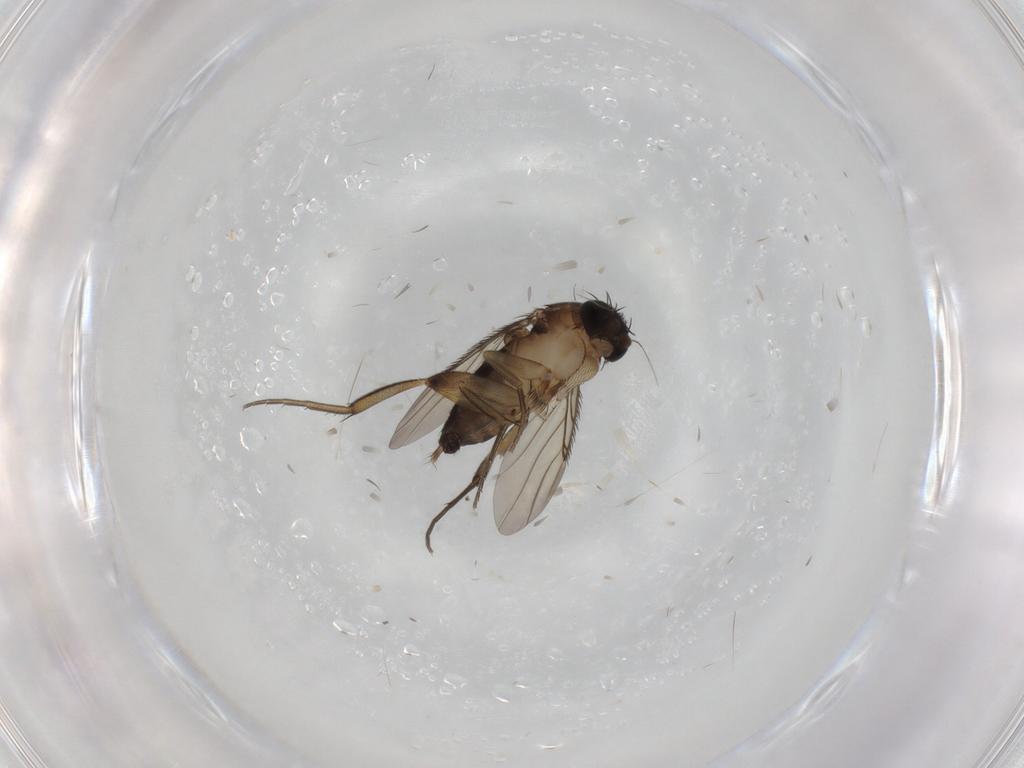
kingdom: Animalia
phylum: Arthropoda
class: Insecta
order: Diptera
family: Phoridae
